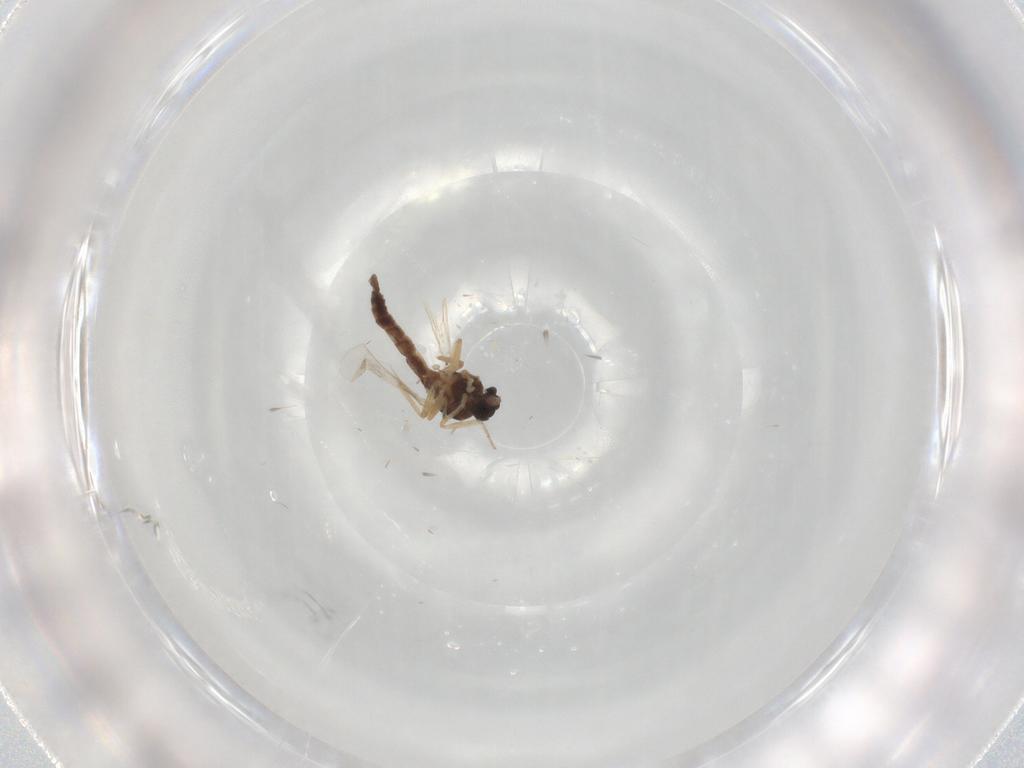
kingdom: Animalia
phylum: Arthropoda
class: Insecta
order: Diptera
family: Ceratopogonidae
